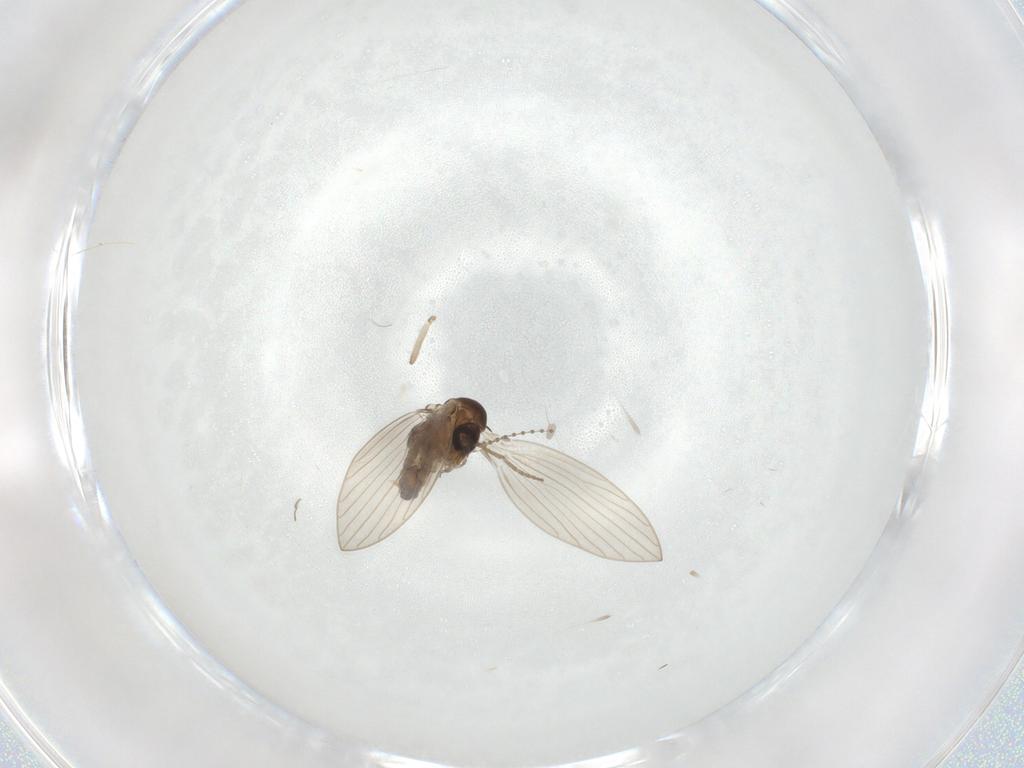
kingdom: Animalia
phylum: Arthropoda
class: Insecta
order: Diptera
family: Psychodidae
